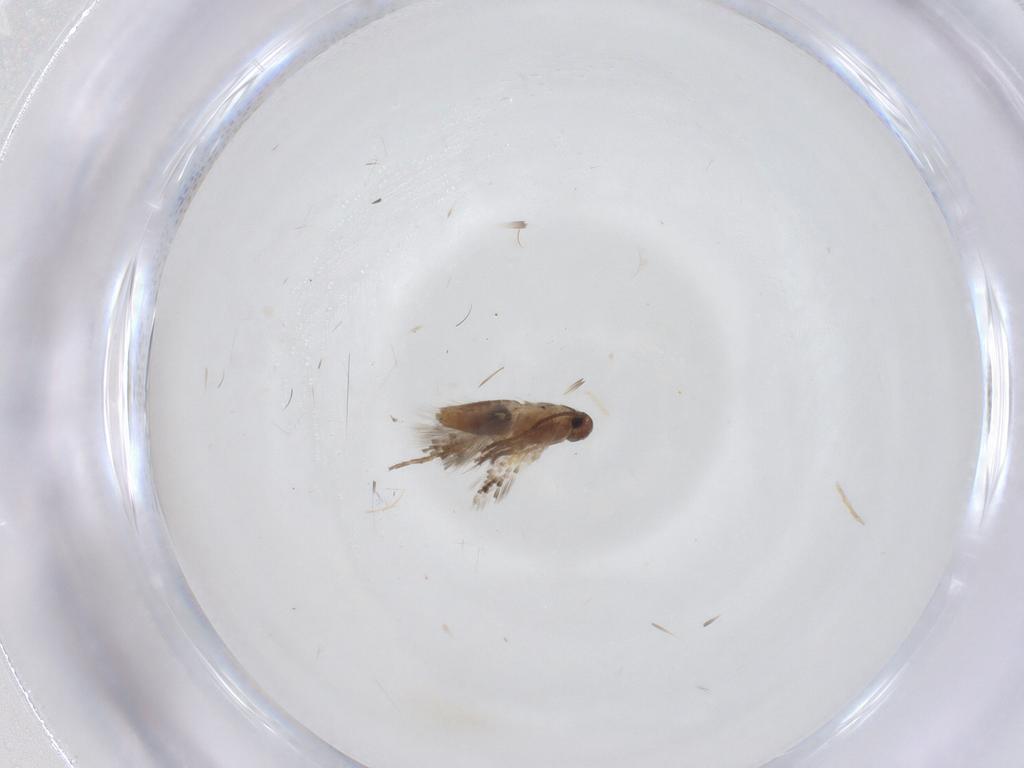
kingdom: Animalia
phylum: Arthropoda
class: Insecta
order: Lepidoptera
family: Heliozelidae
